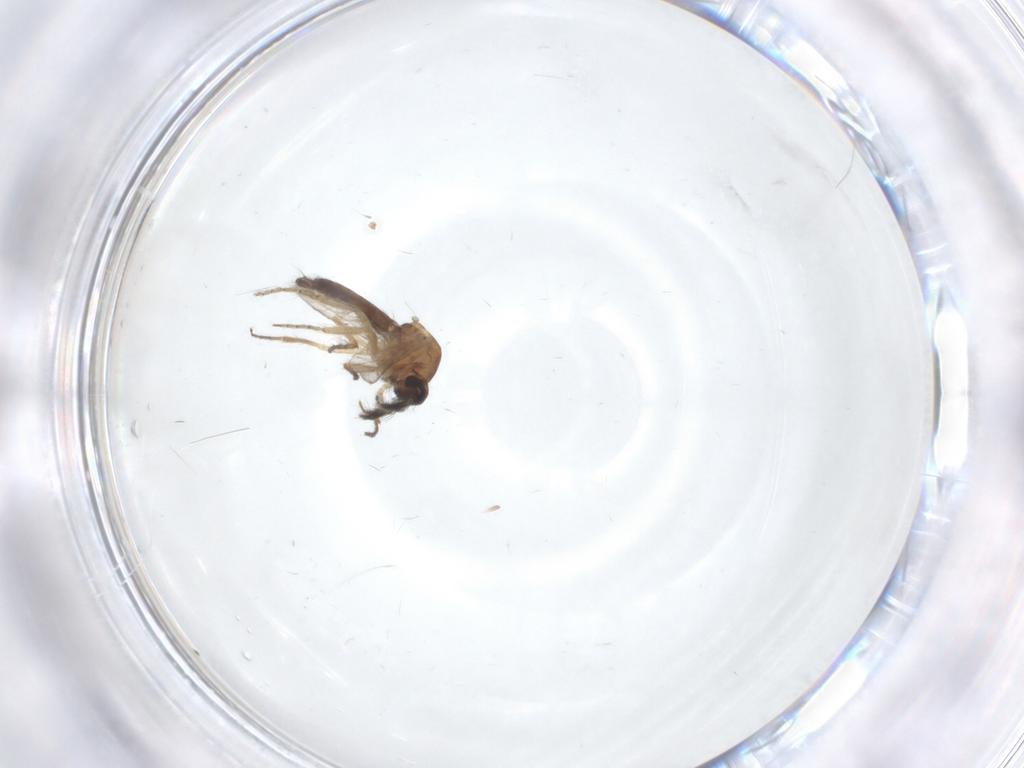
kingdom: Animalia
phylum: Arthropoda
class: Insecta
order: Diptera
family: Ceratopogonidae
